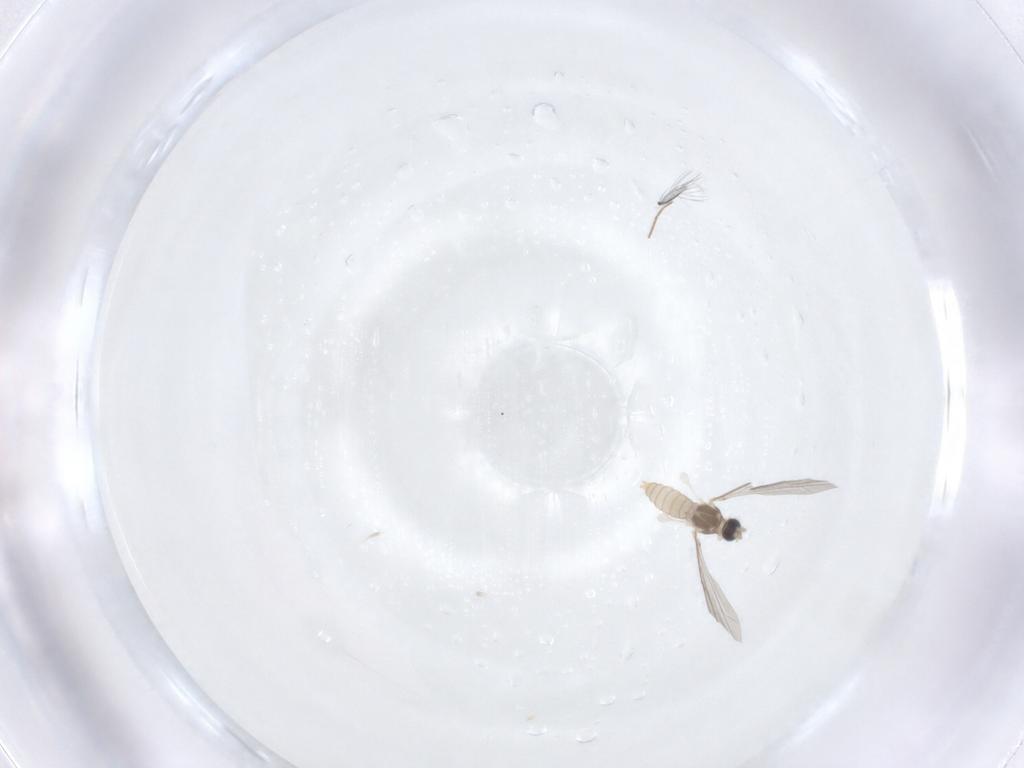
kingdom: Animalia
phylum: Arthropoda
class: Insecta
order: Diptera
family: Cecidomyiidae
